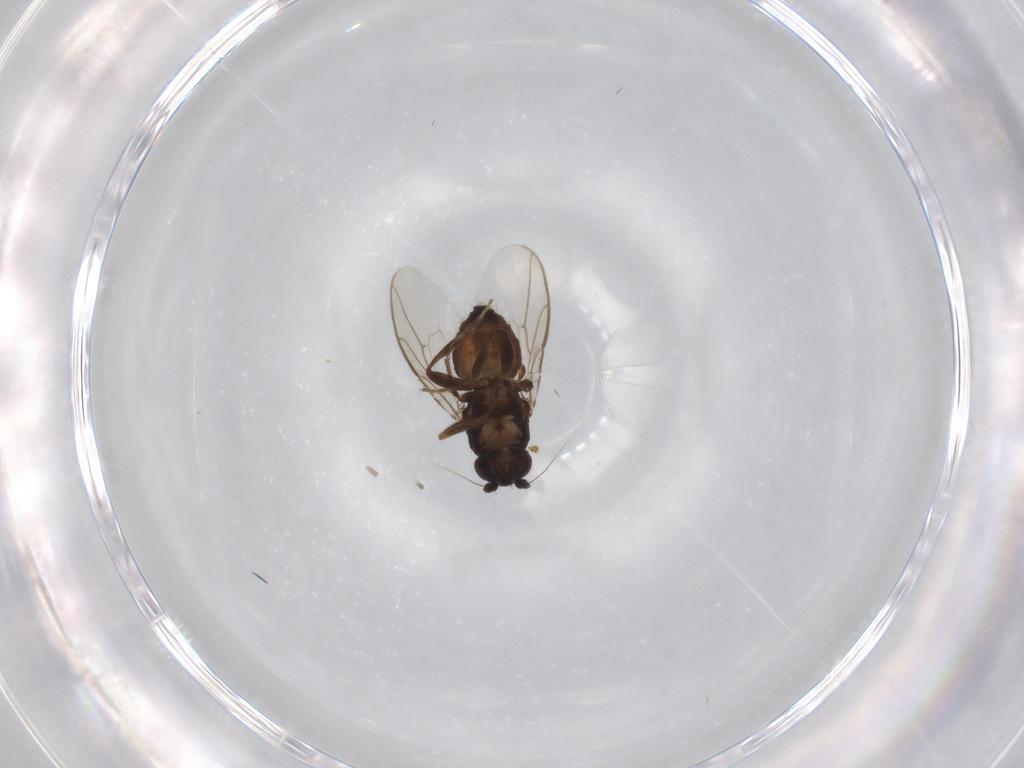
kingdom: Animalia
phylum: Arthropoda
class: Insecta
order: Diptera
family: Sphaeroceridae
